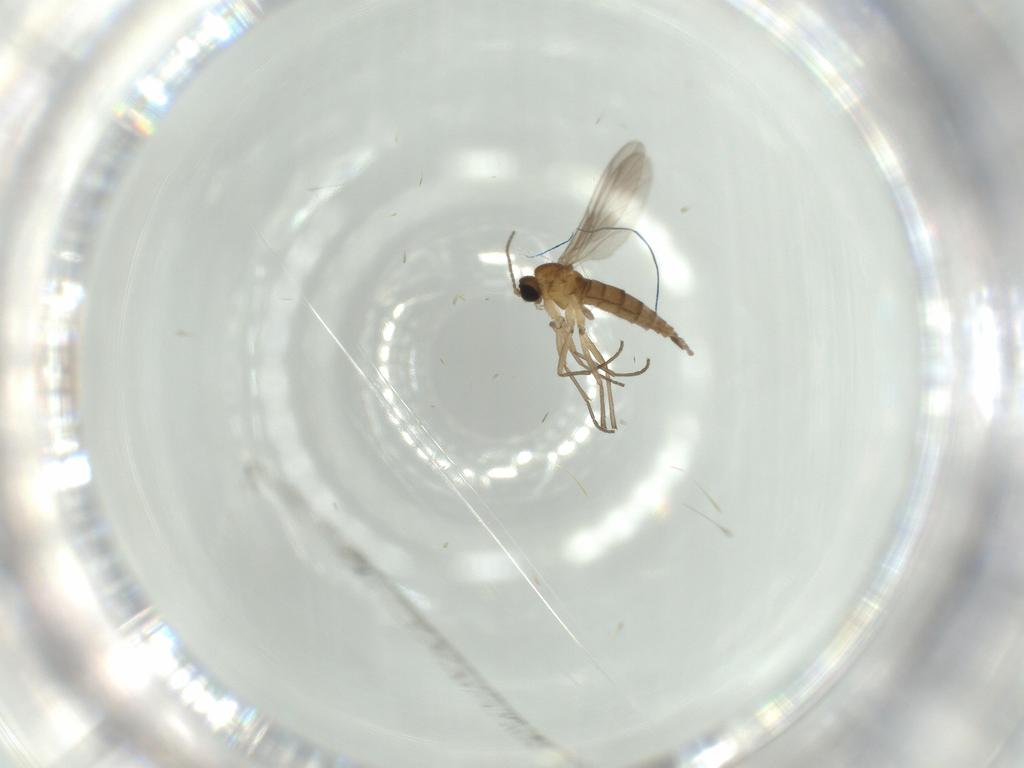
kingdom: Animalia
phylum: Arthropoda
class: Insecta
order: Diptera
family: Sciaridae
